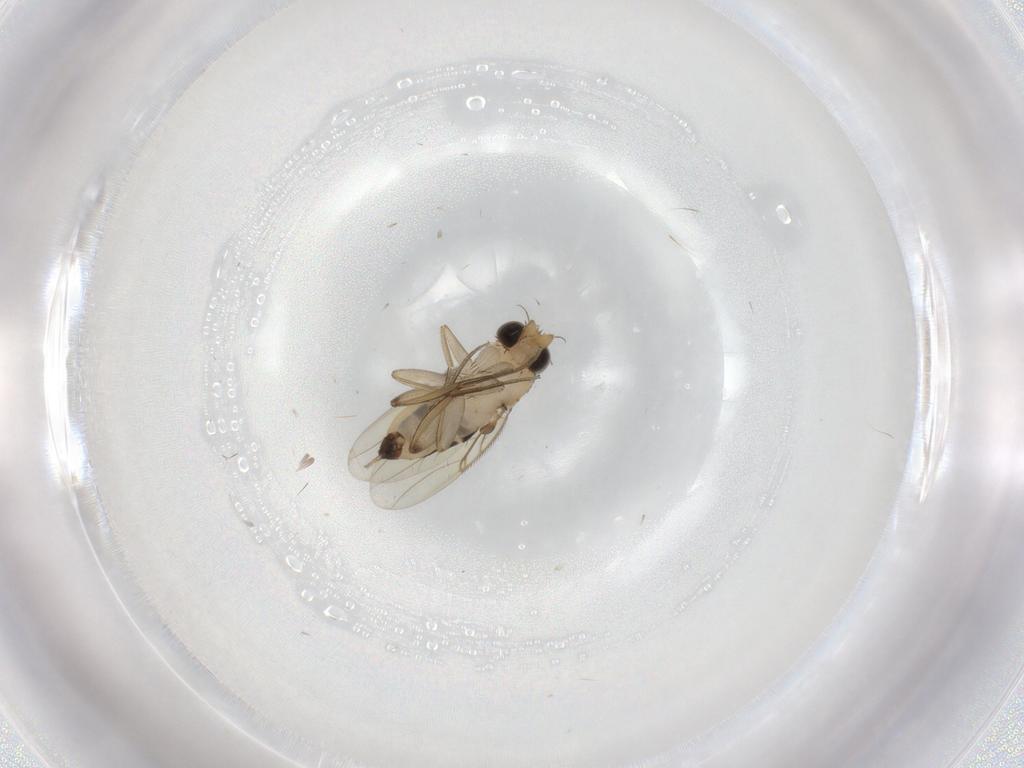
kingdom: Animalia
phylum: Arthropoda
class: Insecta
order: Diptera
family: Phoridae
